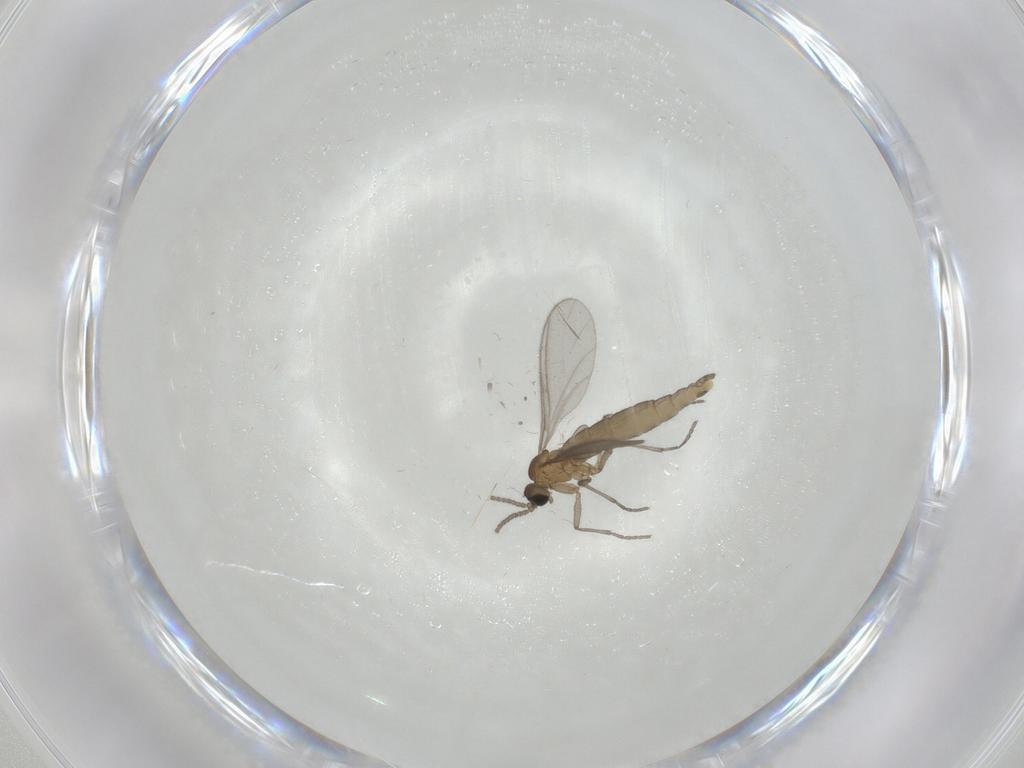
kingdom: Animalia
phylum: Arthropoda
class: Insecta
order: Diptera
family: Sciaridae
